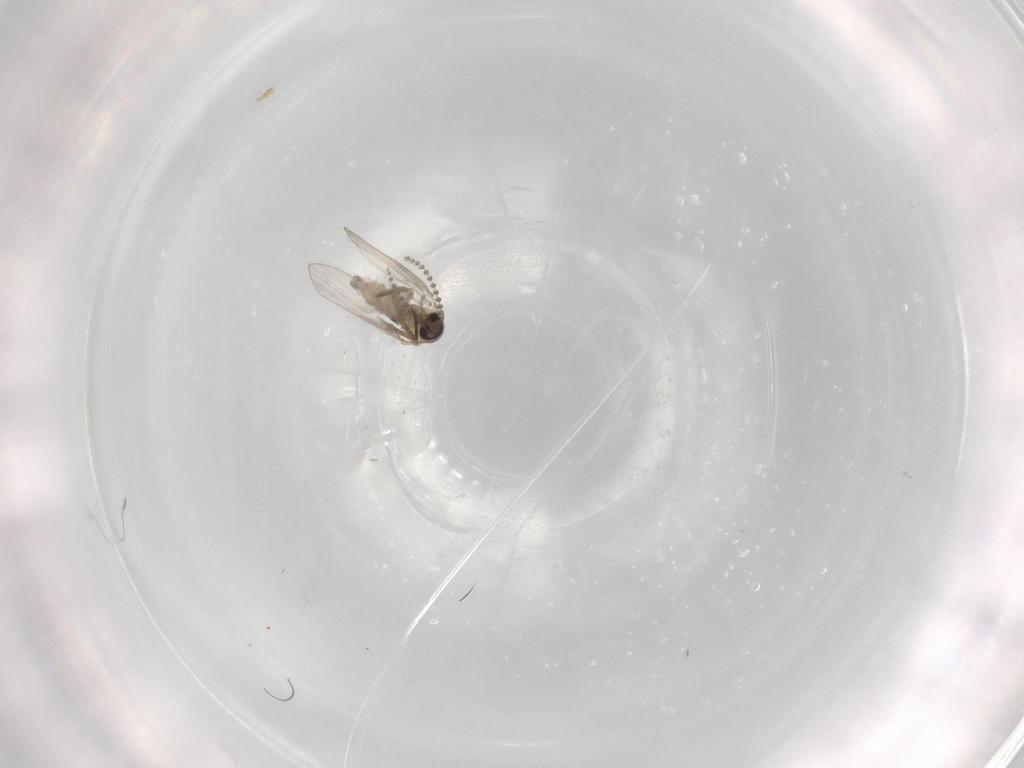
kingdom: Animalia
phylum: Arthropoda
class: Insecta
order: Diptera
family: Psychodidae
